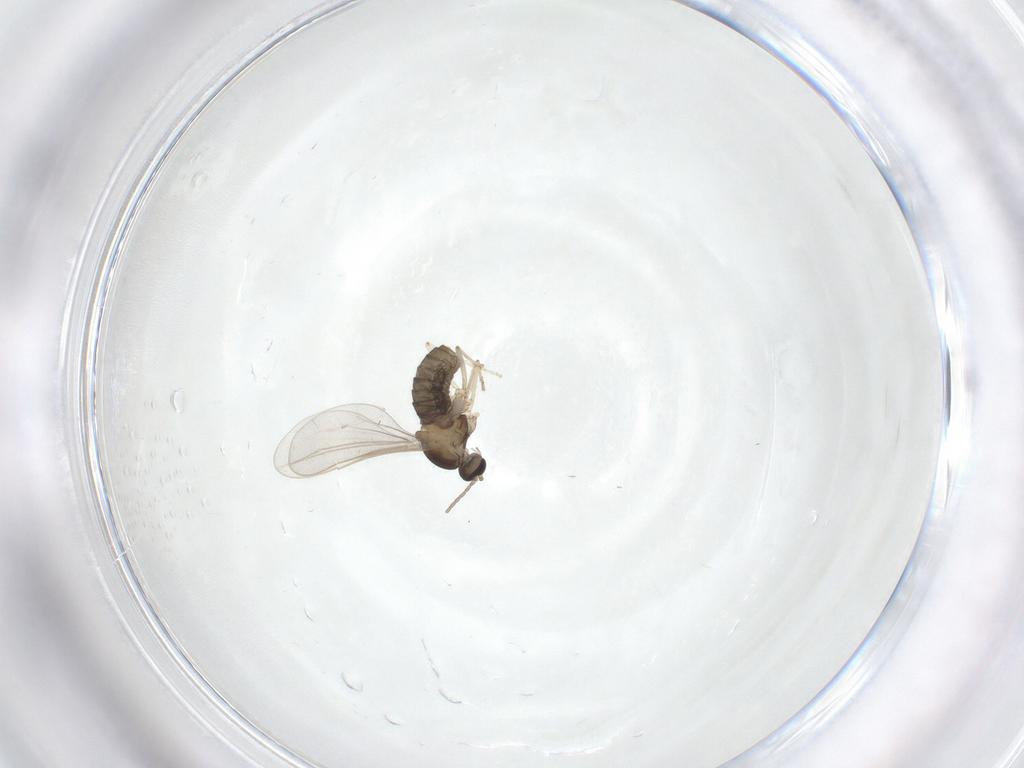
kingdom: Animalia
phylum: Arthropoda
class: Insecta
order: Diptera
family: Cecidomyiidae
